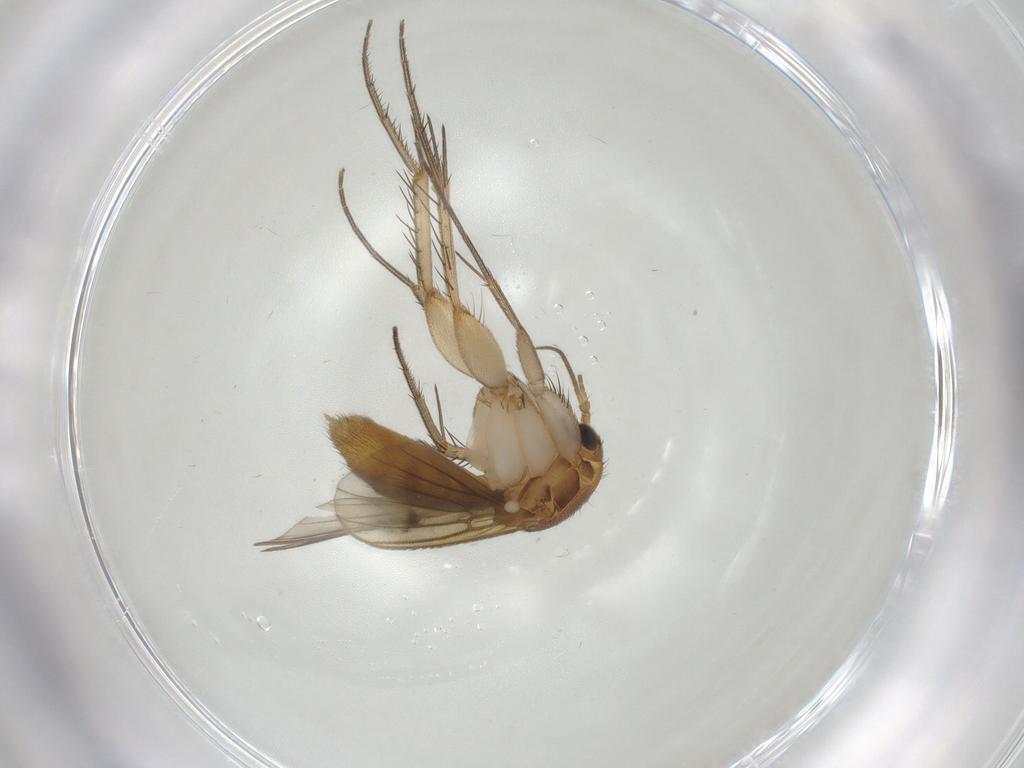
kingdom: Animalia
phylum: Arthropoda
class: Insecta
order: Diptera
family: Mycetophilidae
